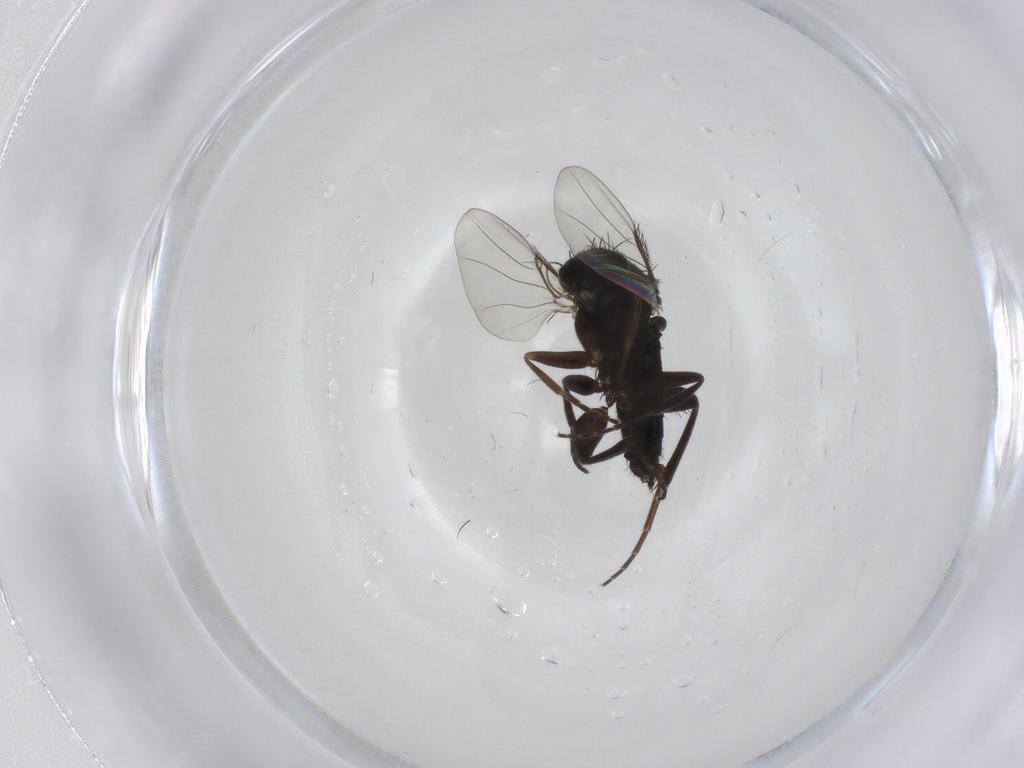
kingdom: Animalia
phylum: Arthropoda
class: Insecta
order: Diptera
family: Phoridae
